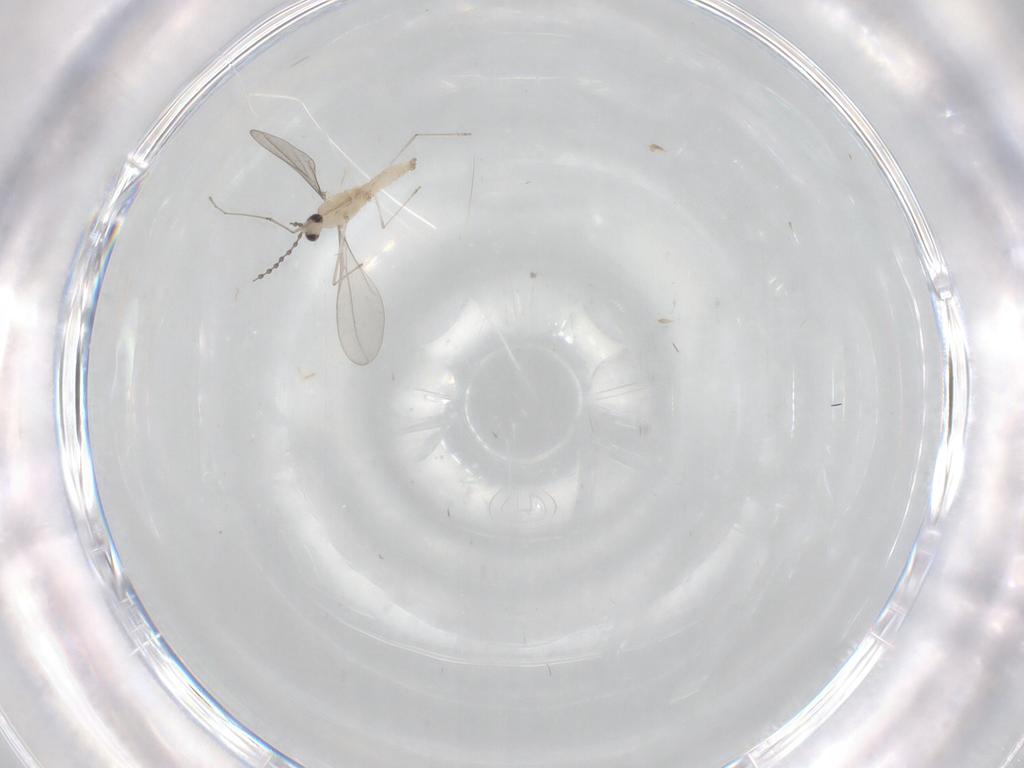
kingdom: Animalia
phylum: Arthropoda
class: Insecta
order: Diptera
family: Cecidomyiidae
